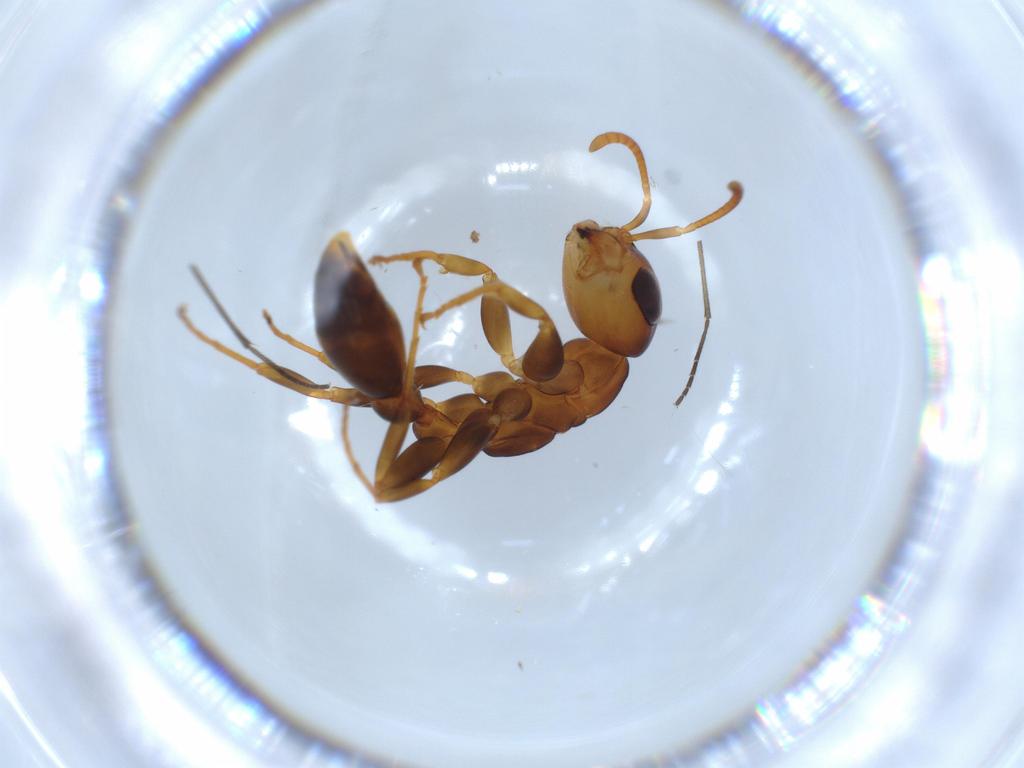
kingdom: Animalia
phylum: Arthropoda
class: Insecta
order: Hymenoptera
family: Formicidae
